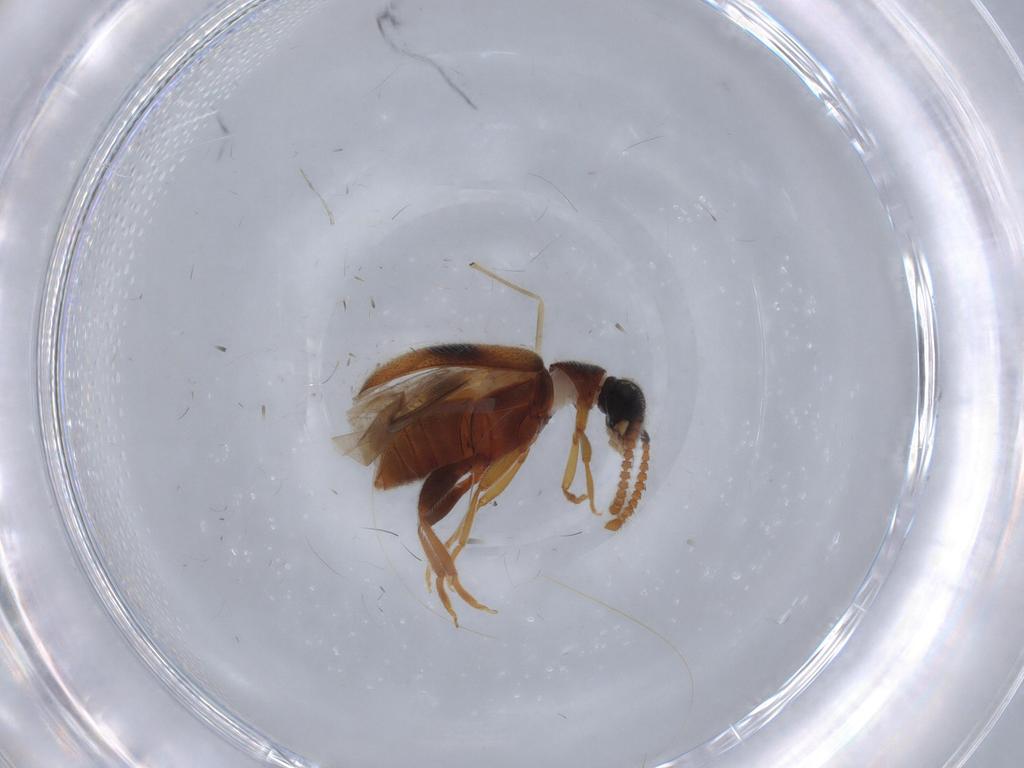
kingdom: Animalia
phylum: Arthropoda
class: Insecta
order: Coleoptera
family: Aderidae
